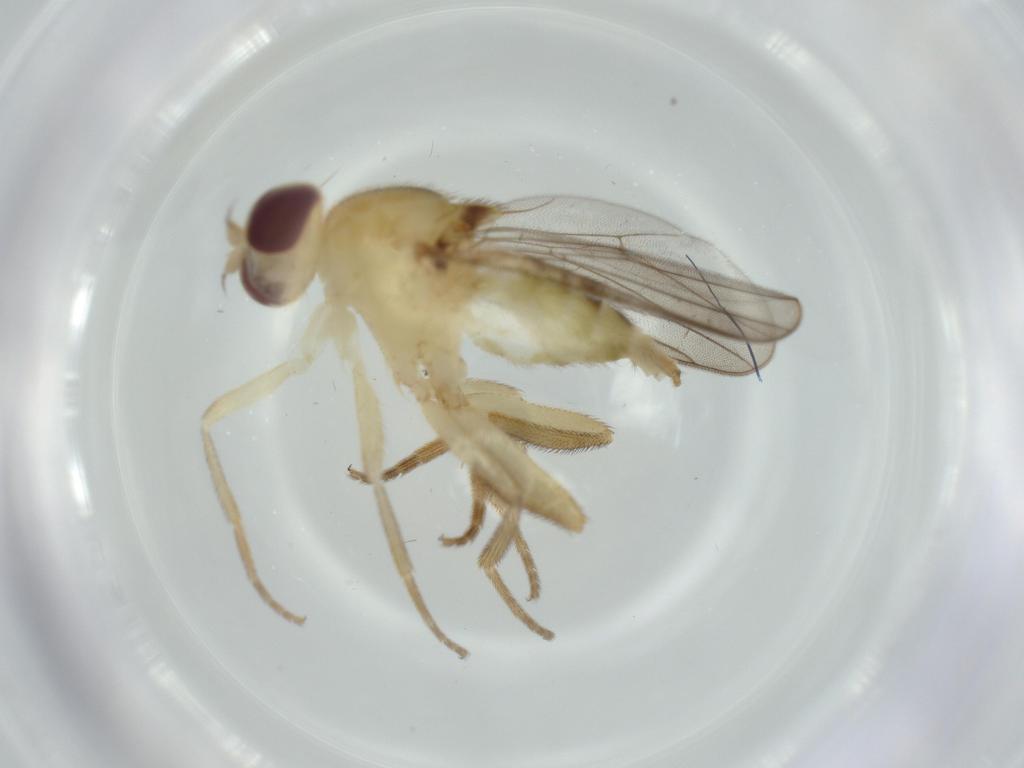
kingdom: Animalia
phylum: Arthropoda
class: Insecta
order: Diptera
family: Chloropidae
